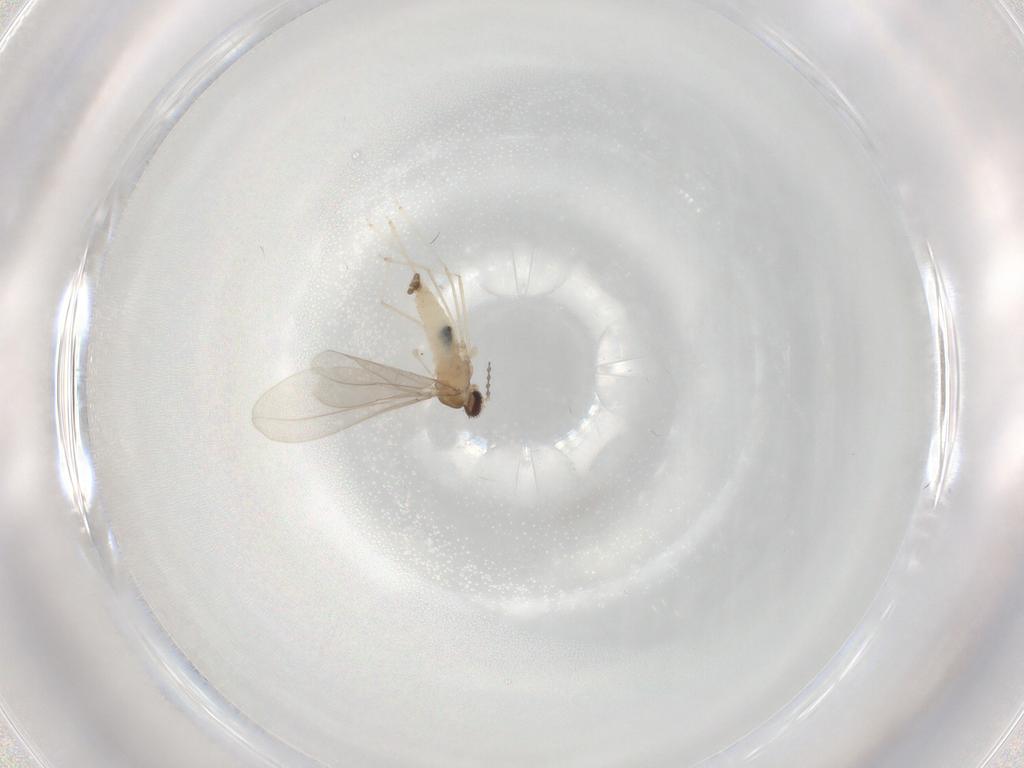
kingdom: Animalia
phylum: Arthropoda
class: Insecta
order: Diptera
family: Cecidomyiidae
